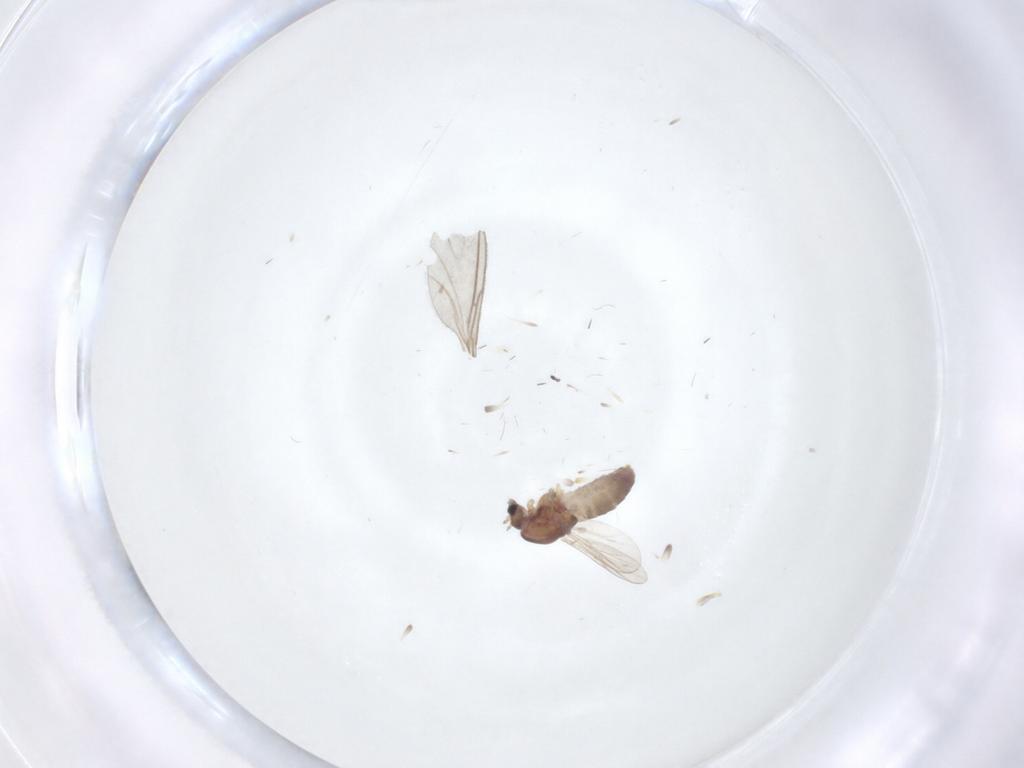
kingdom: Animalia
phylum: Arthropoda
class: Insecta
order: Diptera
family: Chironomidae
